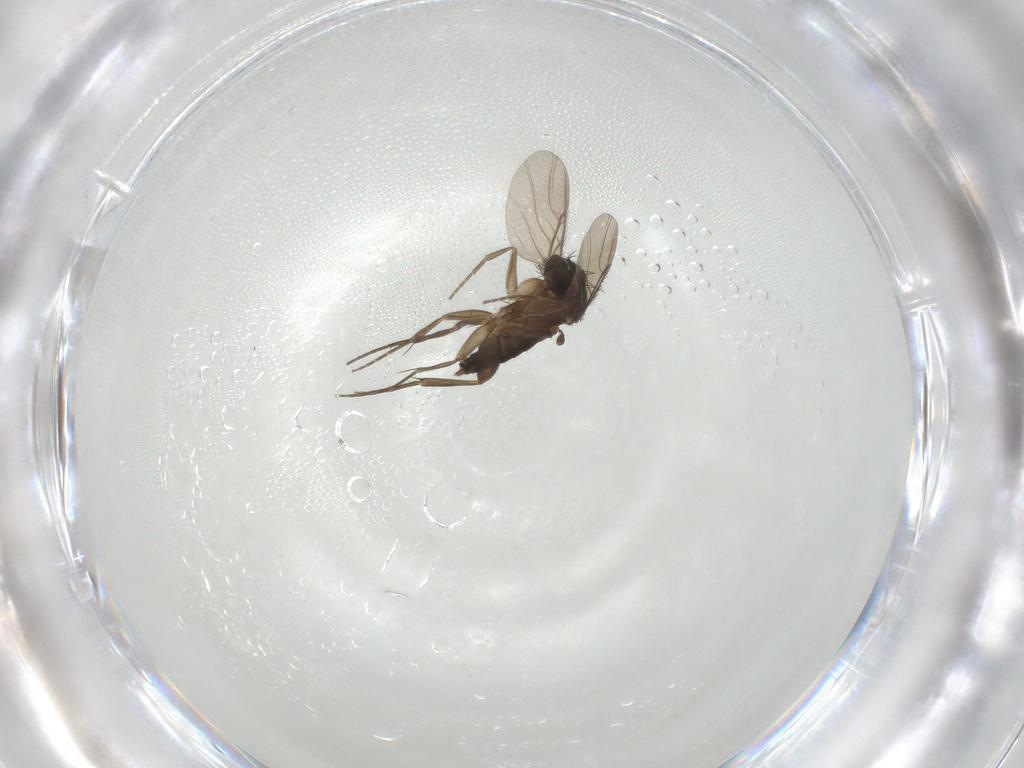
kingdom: Animalia
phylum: Arthropoda
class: Insecta
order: Diptera
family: Phoridae
